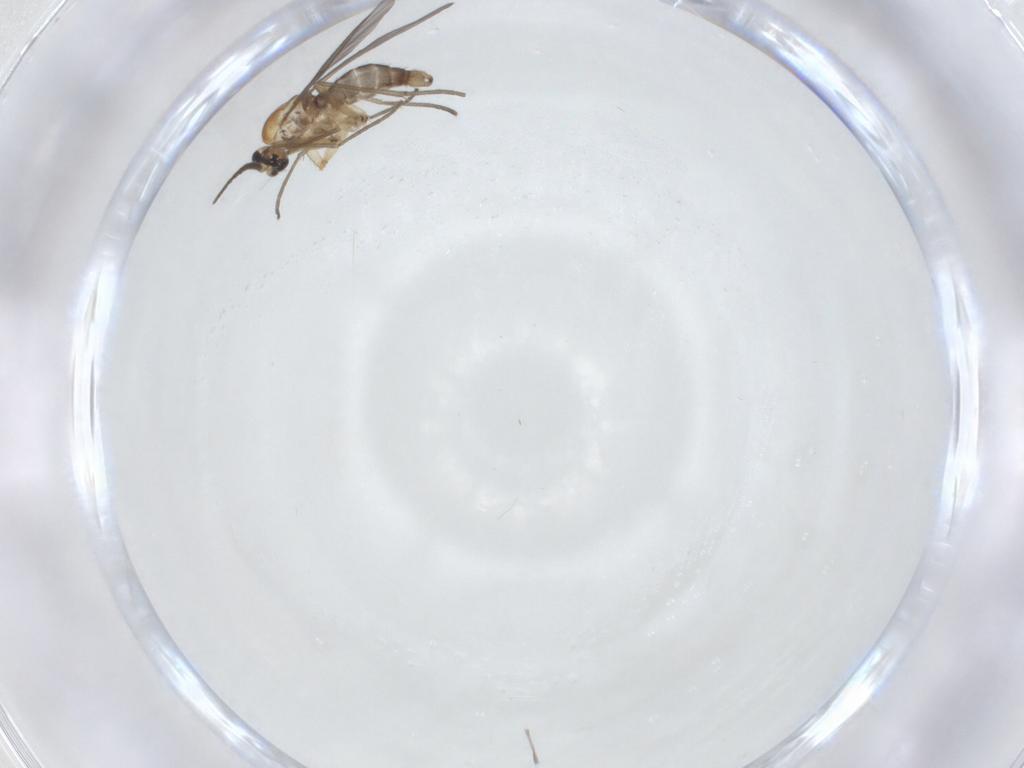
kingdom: Animalia
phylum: Arthropoda
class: Insecta
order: Diptera
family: Sciaridae
